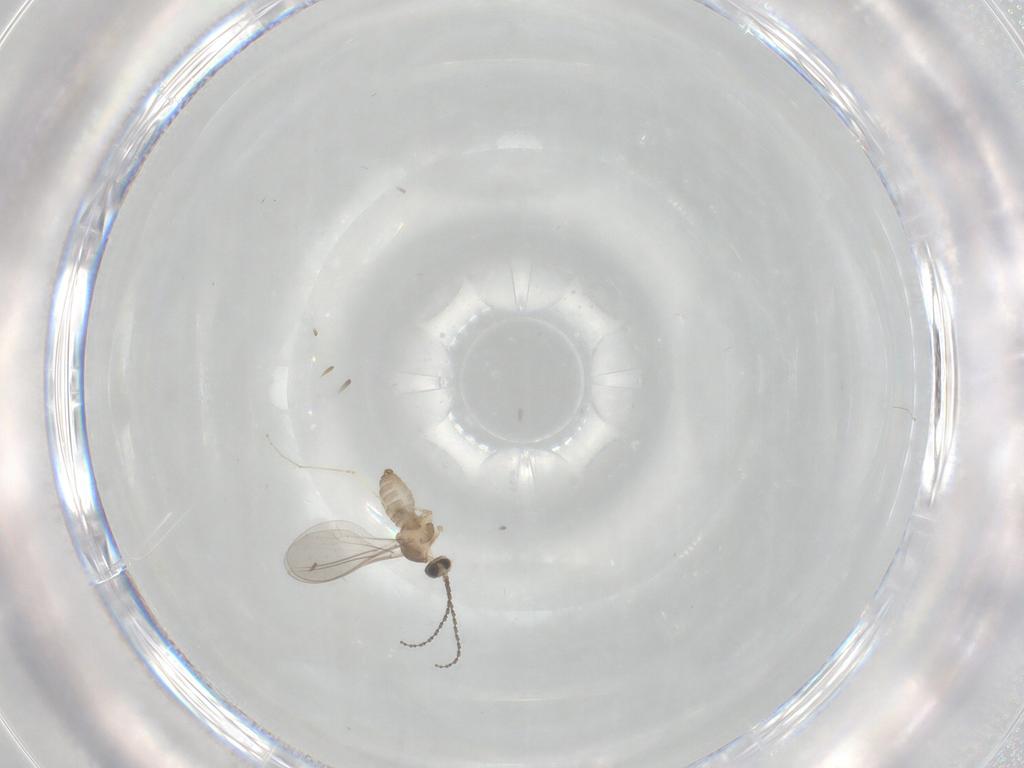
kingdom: Animalia
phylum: Arthropoda
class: Insecta
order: Diptera
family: Cecidomyiidae
